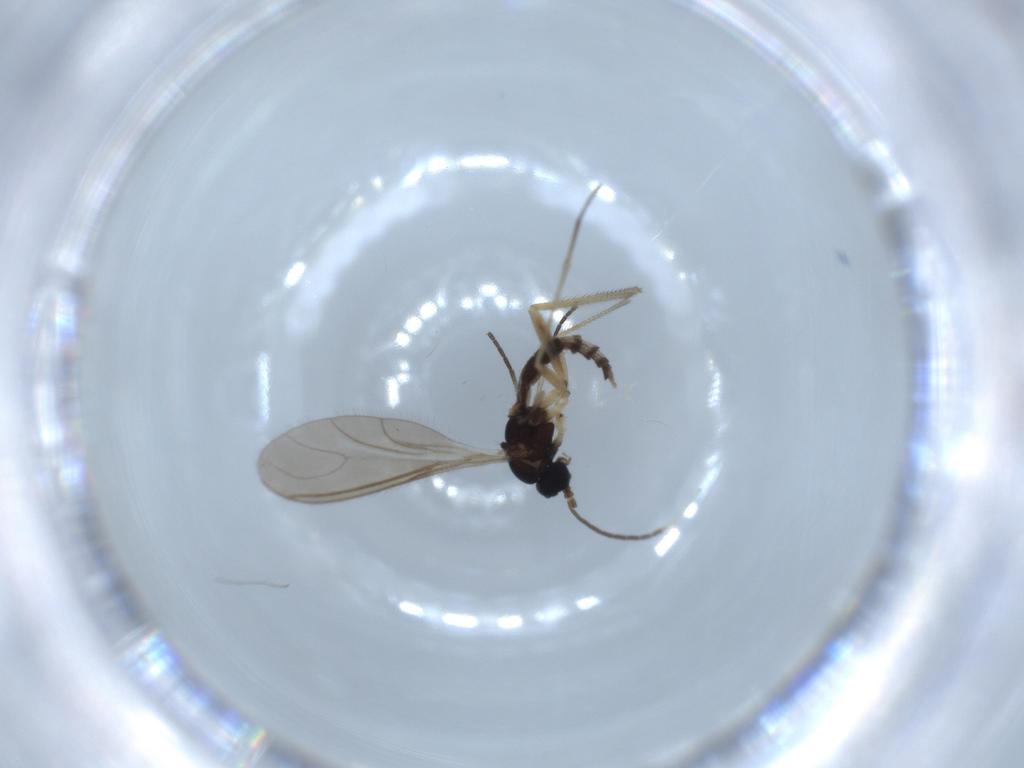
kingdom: Animalia
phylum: Arthropoda
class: Insecta
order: Diptera
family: Sciaridae
